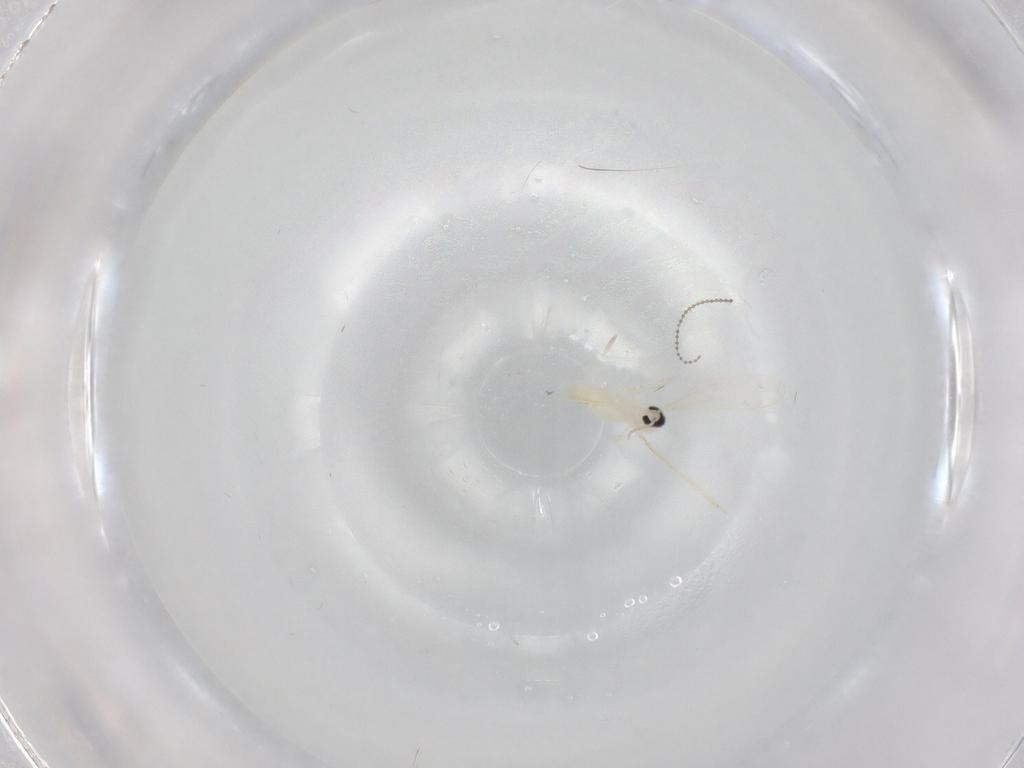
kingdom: Animalia
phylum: Arthropoda
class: Insecta
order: Diptera
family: Cecidomyiidae
